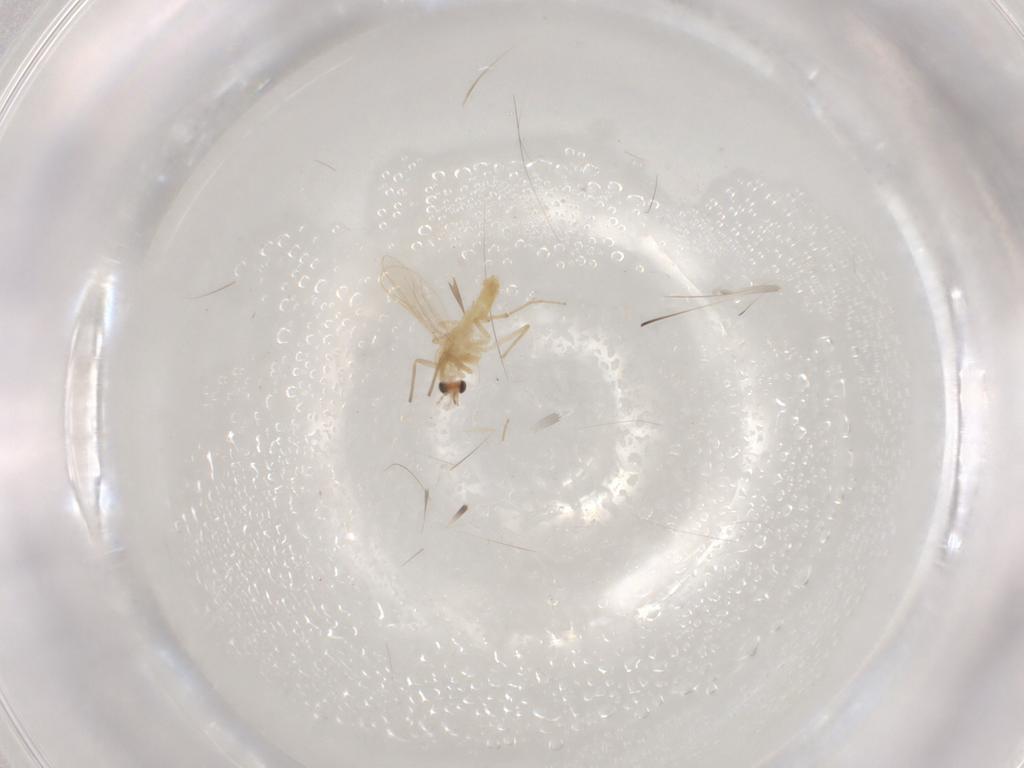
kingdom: Animalia
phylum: Arthropoda
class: Insecta
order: Diptera
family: Chironomidae
